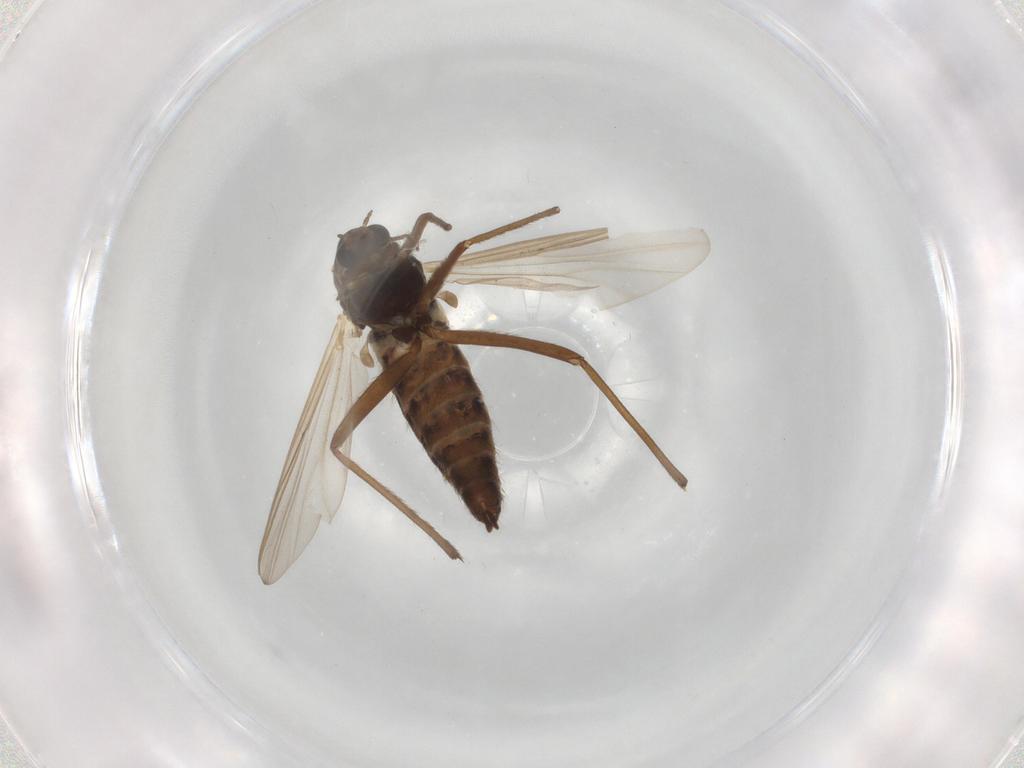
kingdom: Animalia
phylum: Arthropoda
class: Insecta
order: Diptera
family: Chironomidae
